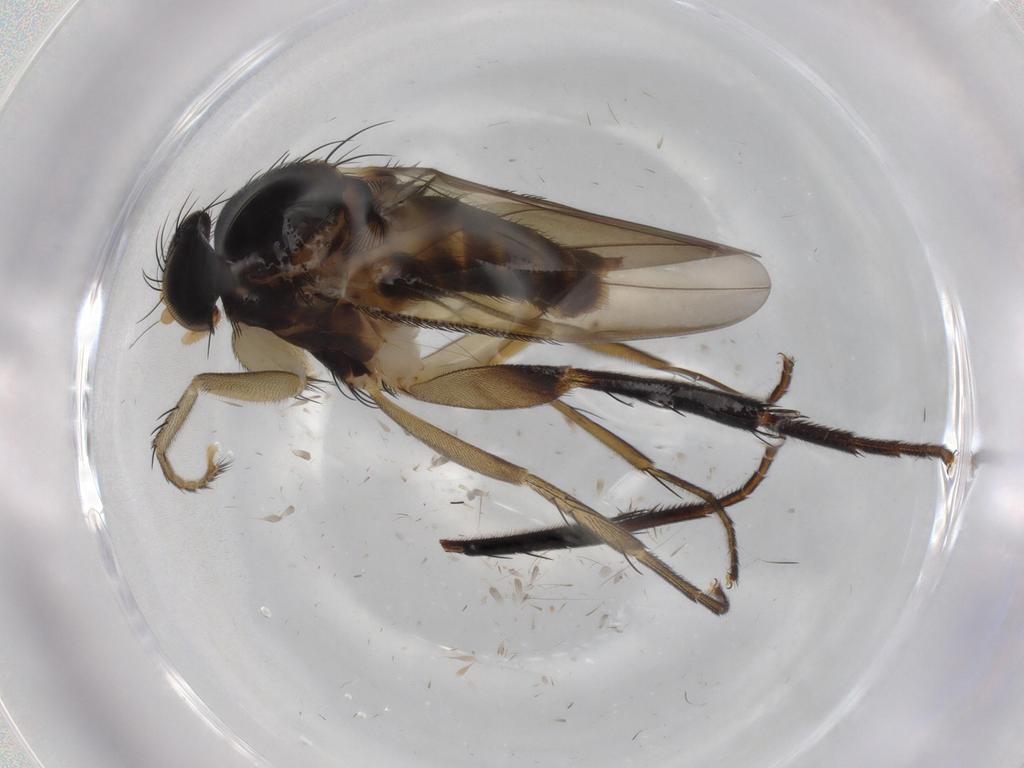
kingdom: Animalia
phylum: Arthropoda
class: Insecta
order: Diptera
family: Phoridae
